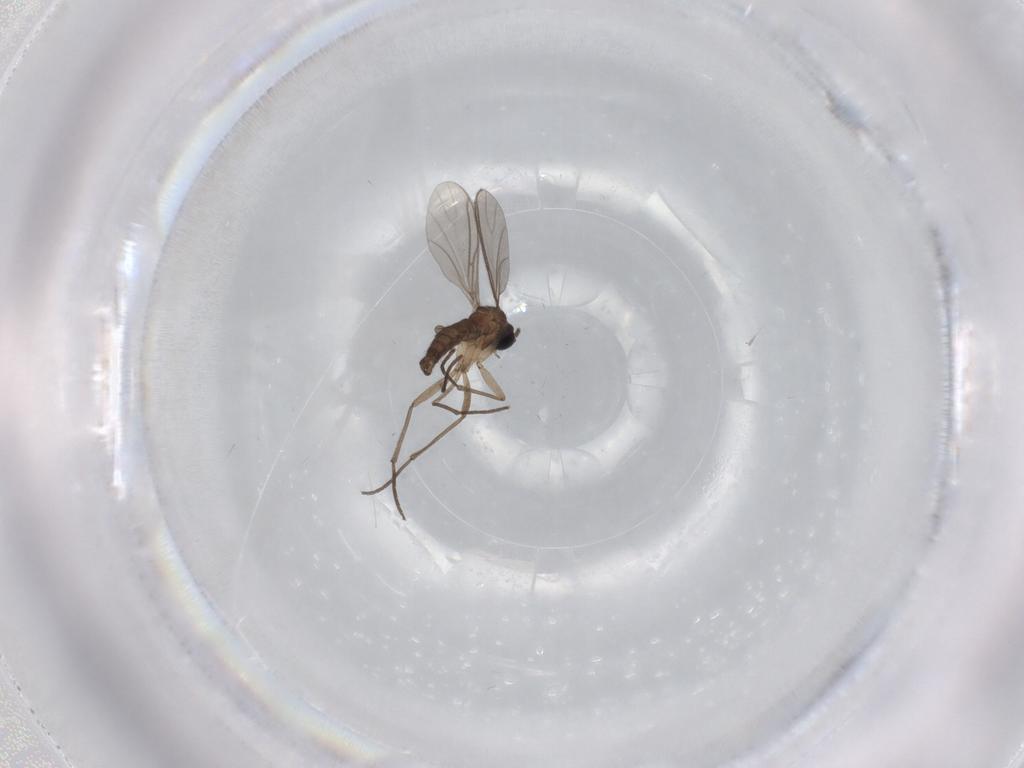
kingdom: Animalia
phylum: Arthropoda
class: Insecta
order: Diptera
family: Sciaridae
